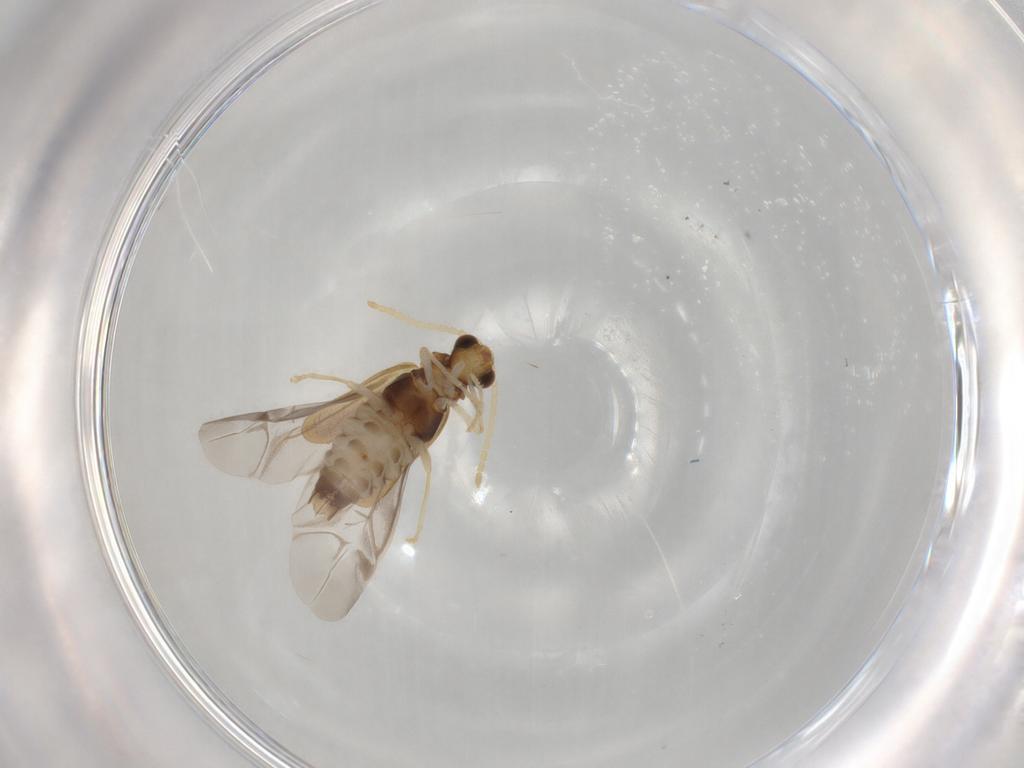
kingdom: Animalia
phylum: Arthropoda
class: Insecta
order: Coleoptera
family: Cantharidae
